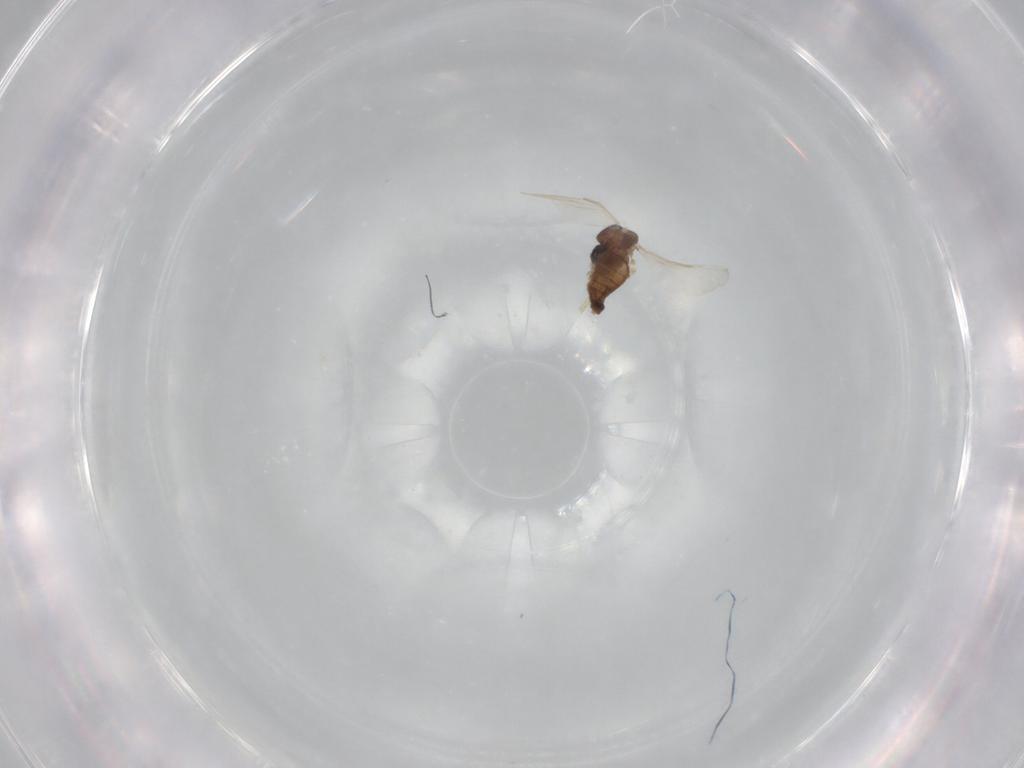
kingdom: Animalia
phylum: Arthropoda
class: Insecta
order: Diptera
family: Ceratopogonidae
